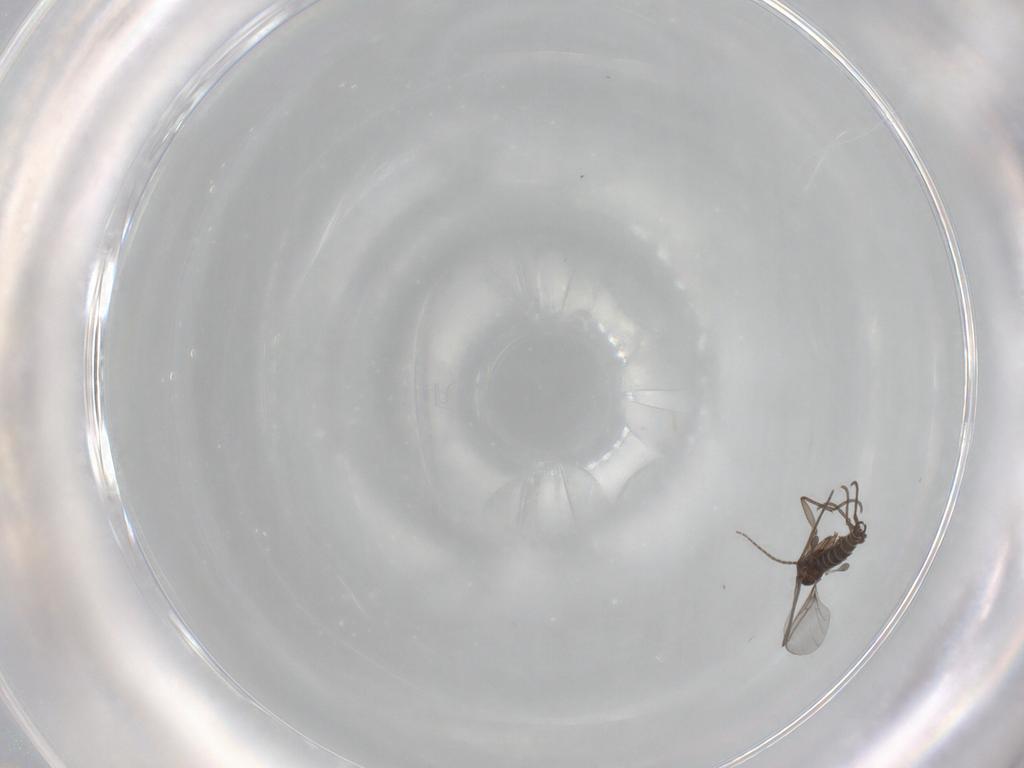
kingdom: Animalia
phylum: Arthropoda
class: Insecta
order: Diptera
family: Sciaridae
